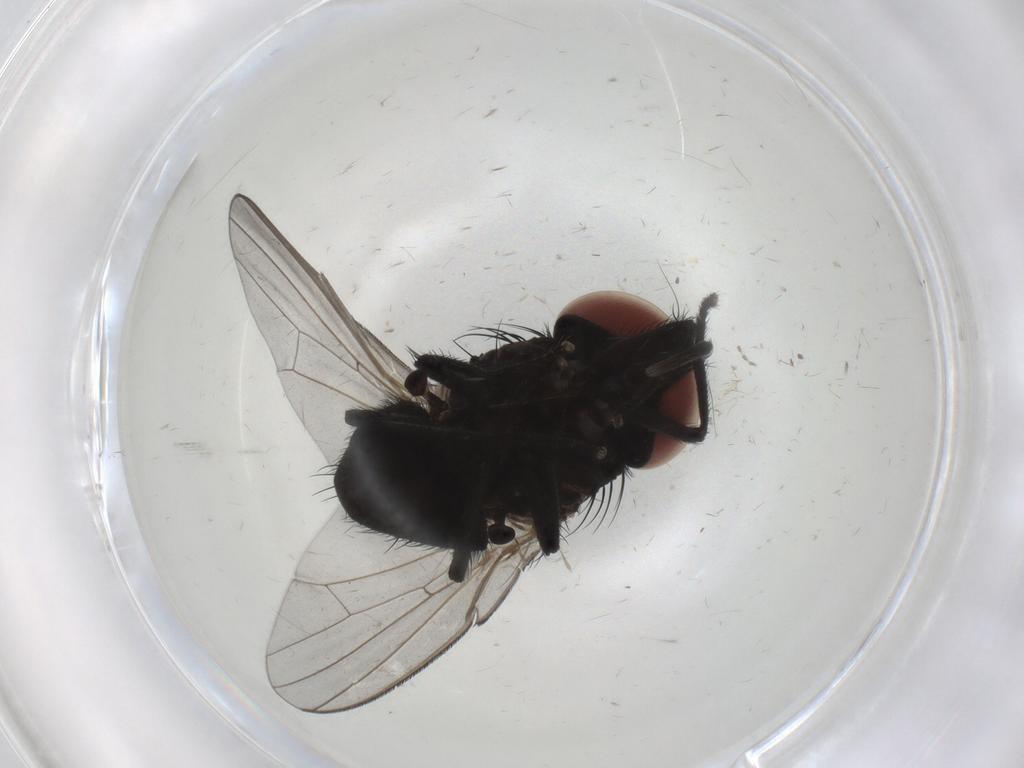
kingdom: Animalia
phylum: Arthropoda
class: Insecta
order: Diptera
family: Milichiidae
